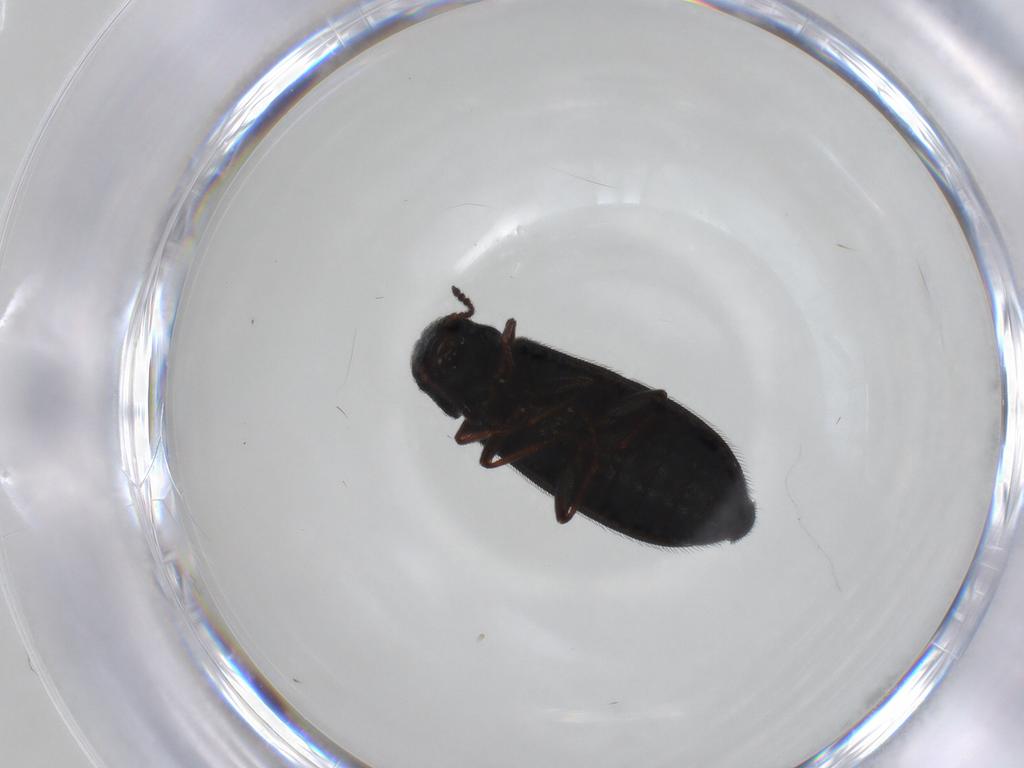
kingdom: Animalia
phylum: Arthropoda
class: Insecta
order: Coleoptera
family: Melyridae
